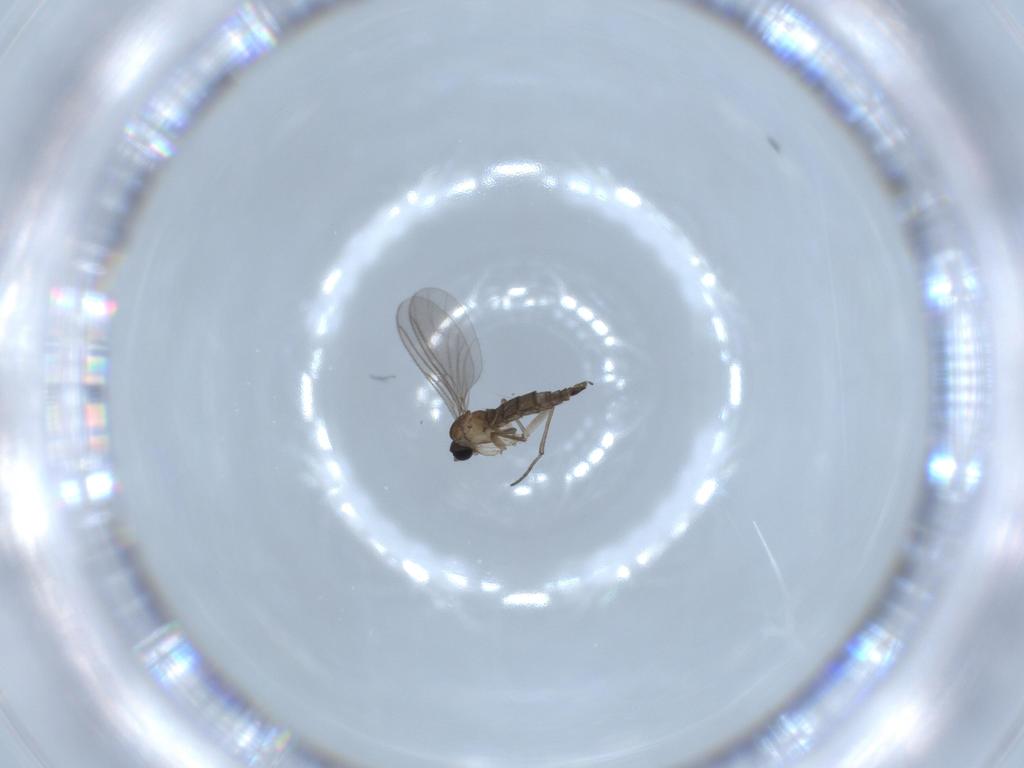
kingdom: Animalia
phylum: Arthropoda
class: Insecta
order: Diptera
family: Sciaridae
